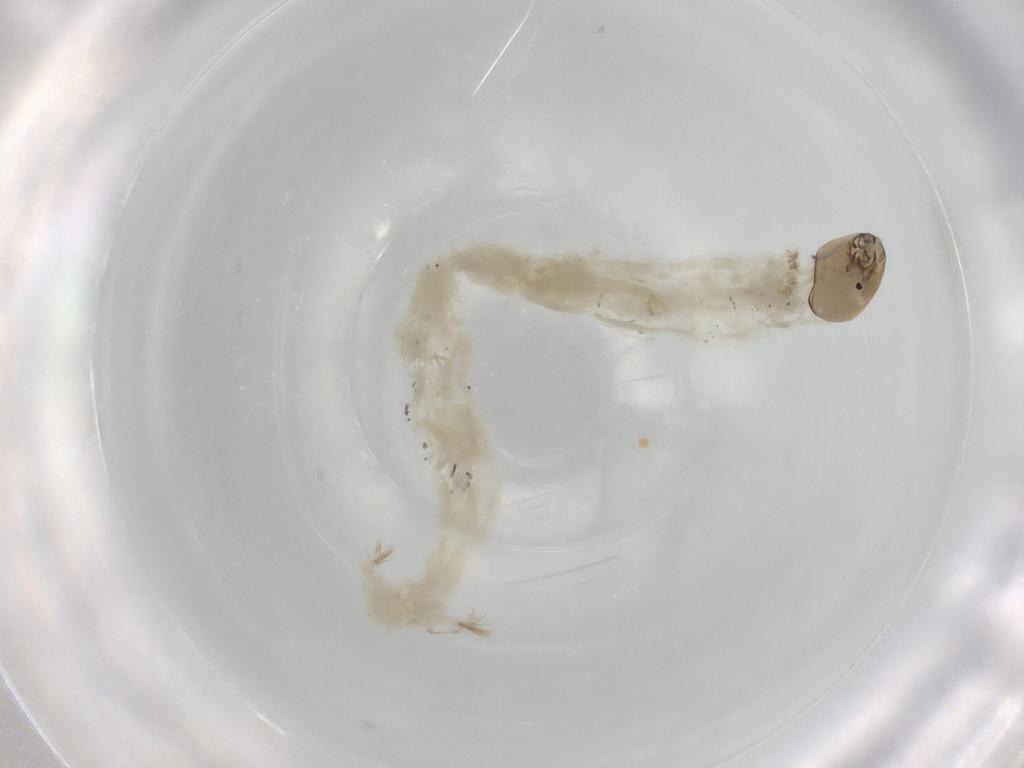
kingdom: Animalia
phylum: Arthropoda
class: Insecta
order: Diptera
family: Chironomidae
